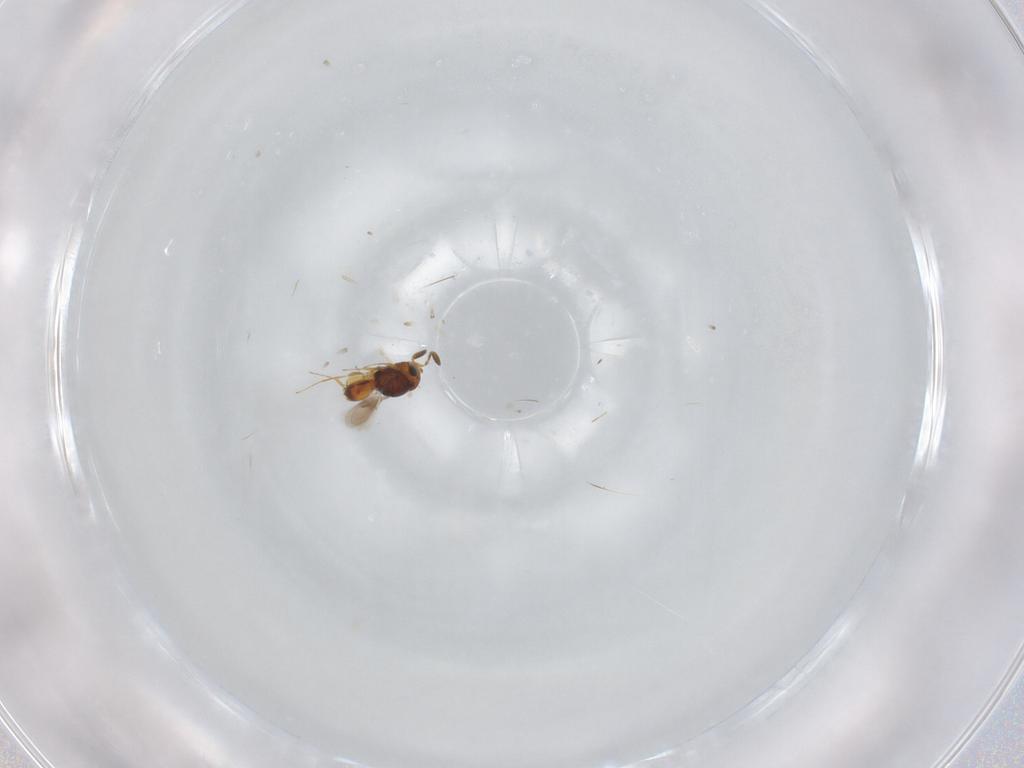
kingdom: Animalia
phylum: Arthropoda
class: Insecta
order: Hymenoptera
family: Scelionidae
